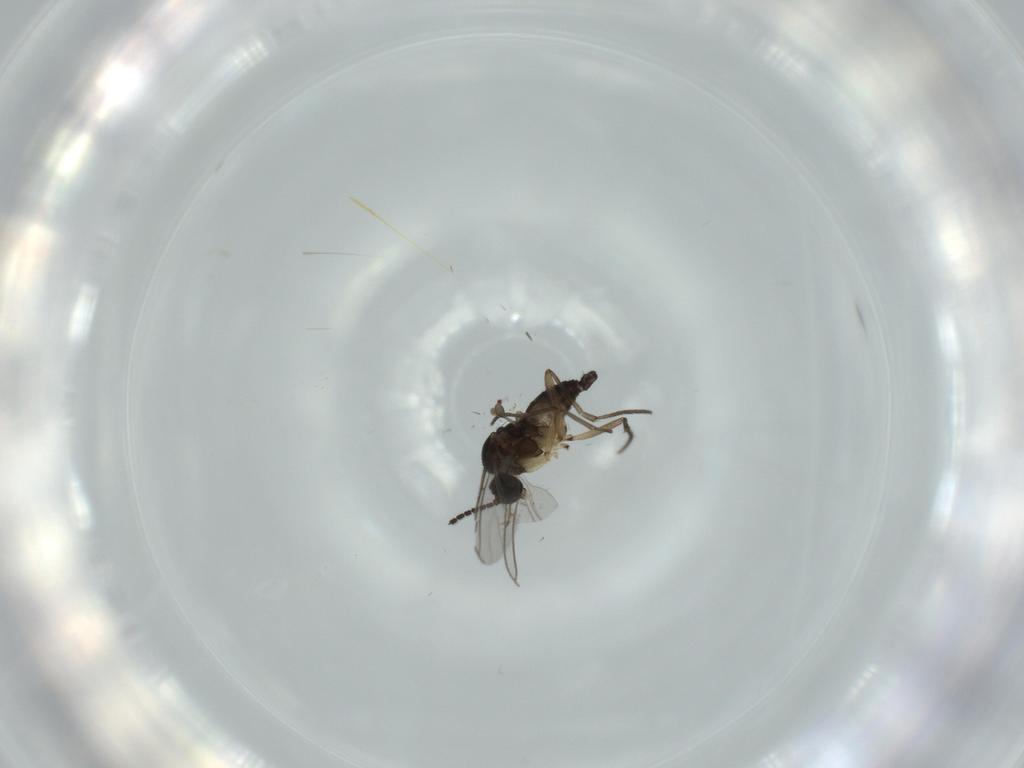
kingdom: Animalia
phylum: Arthropoda
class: Insecta
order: Diptera
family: Sciaridae
